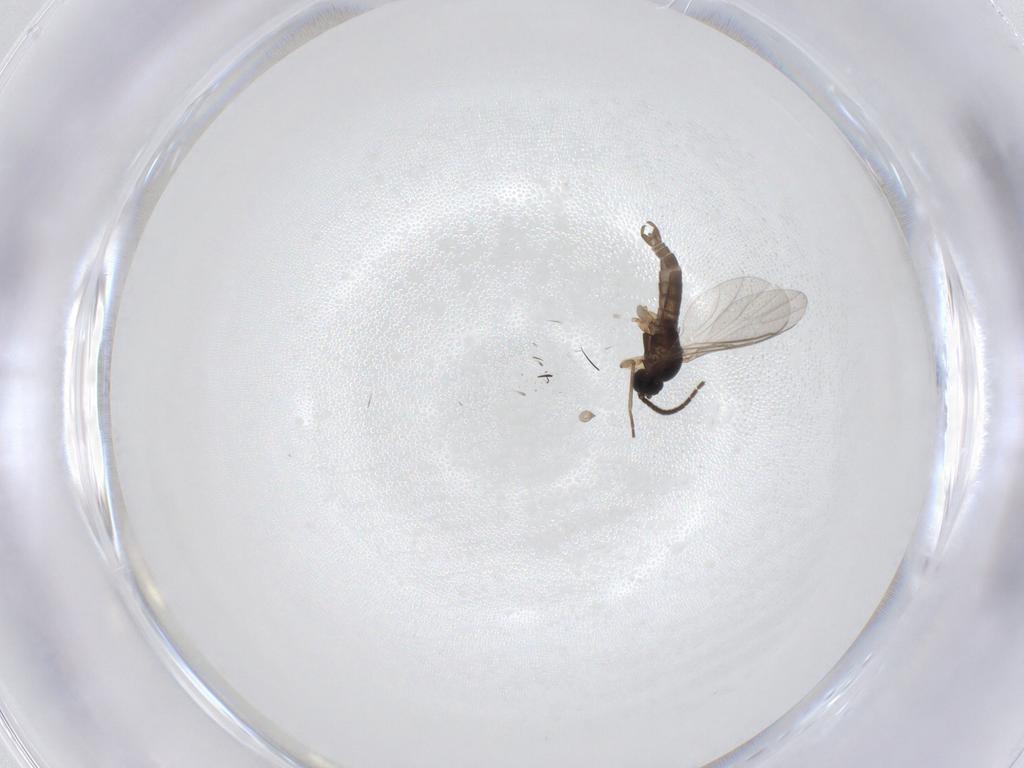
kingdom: Animalia
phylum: Arthropoda
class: Insecta
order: Diptera
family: Sciaridae
